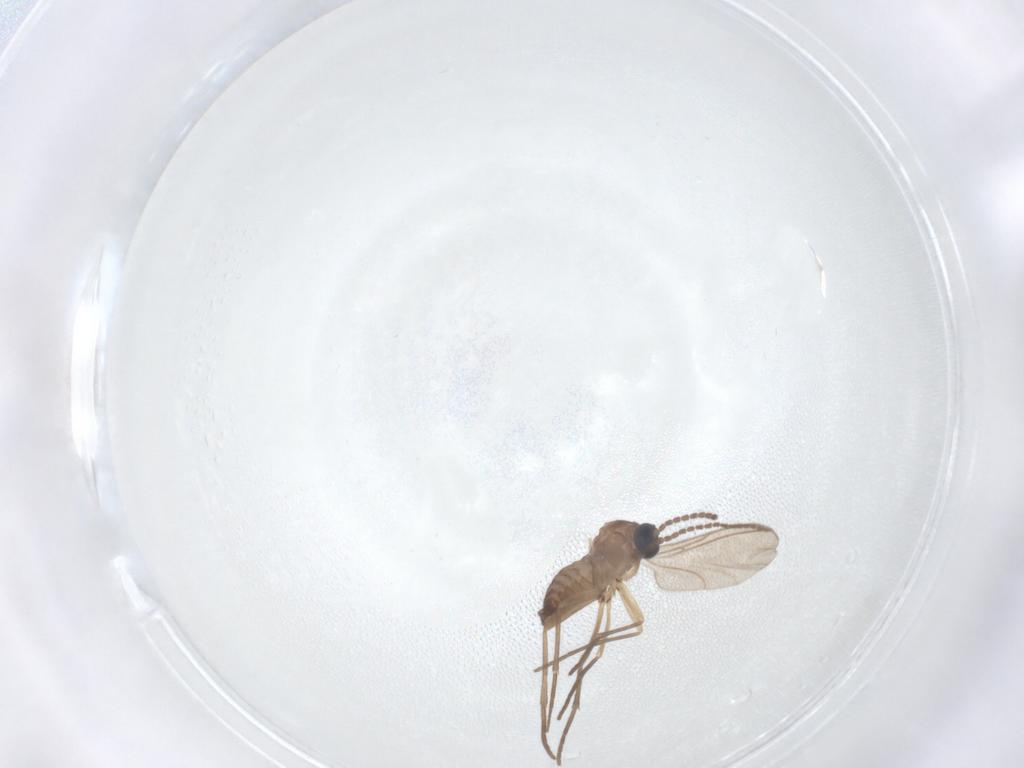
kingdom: Animalia
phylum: Arthropoda
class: Insecta
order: Diptera
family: Sciaridae
